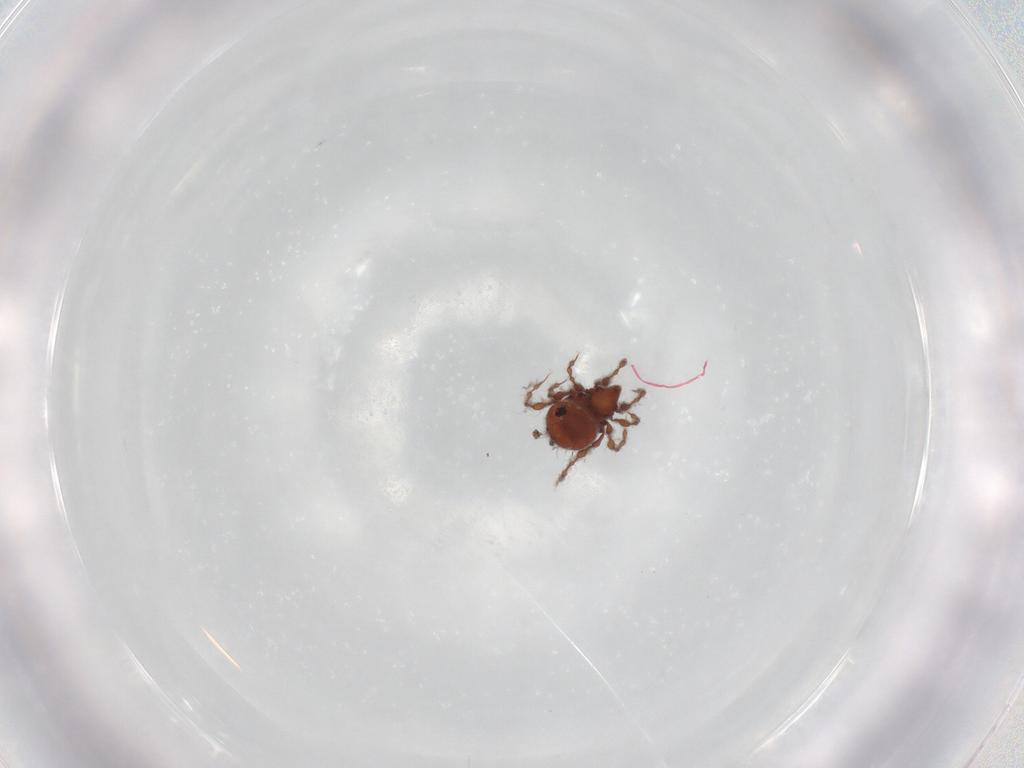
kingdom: Animalia
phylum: Arthropoda
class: Arachnida
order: Sarcoptiformes
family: Damaeidae
